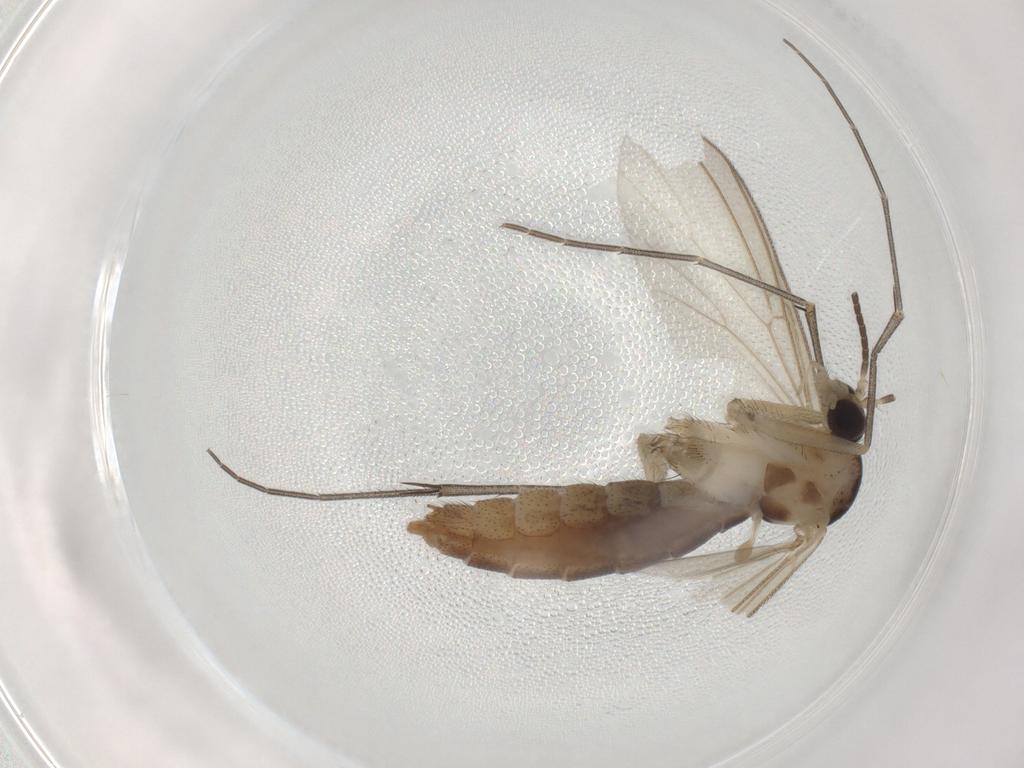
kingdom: Animalia
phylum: Arthropoda
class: Insecta
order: Diptera
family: Mycetophilidae
